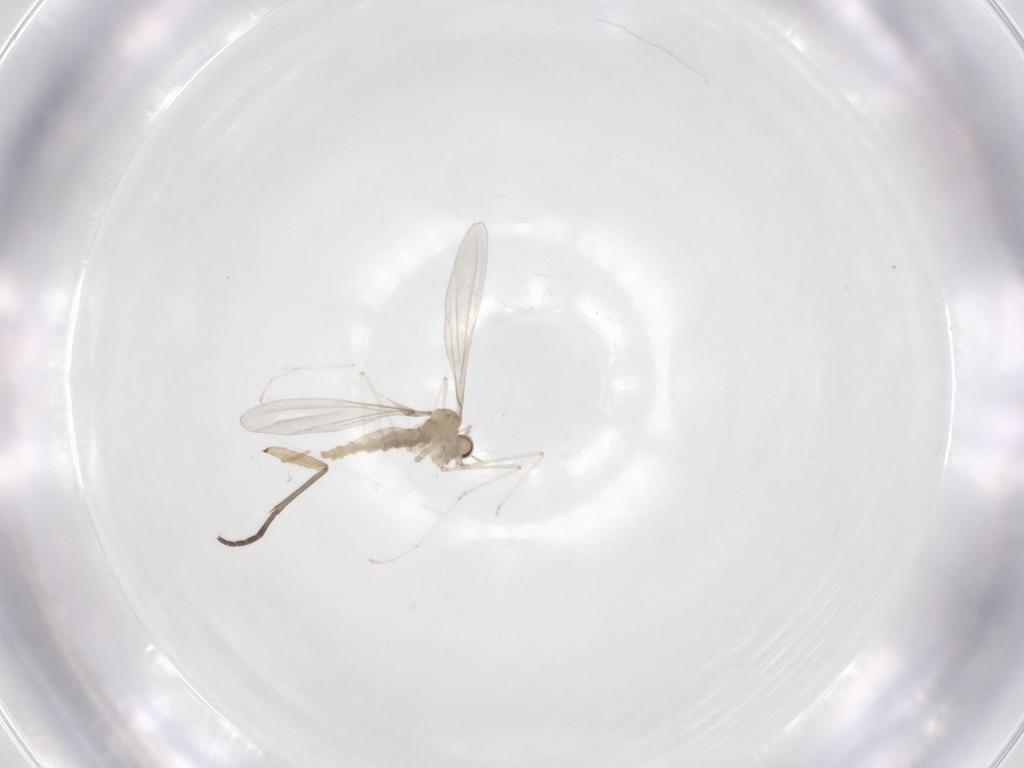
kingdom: Animalia
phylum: Arthropoda
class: Insecta
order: Diptera
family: Cecidomyiidae
